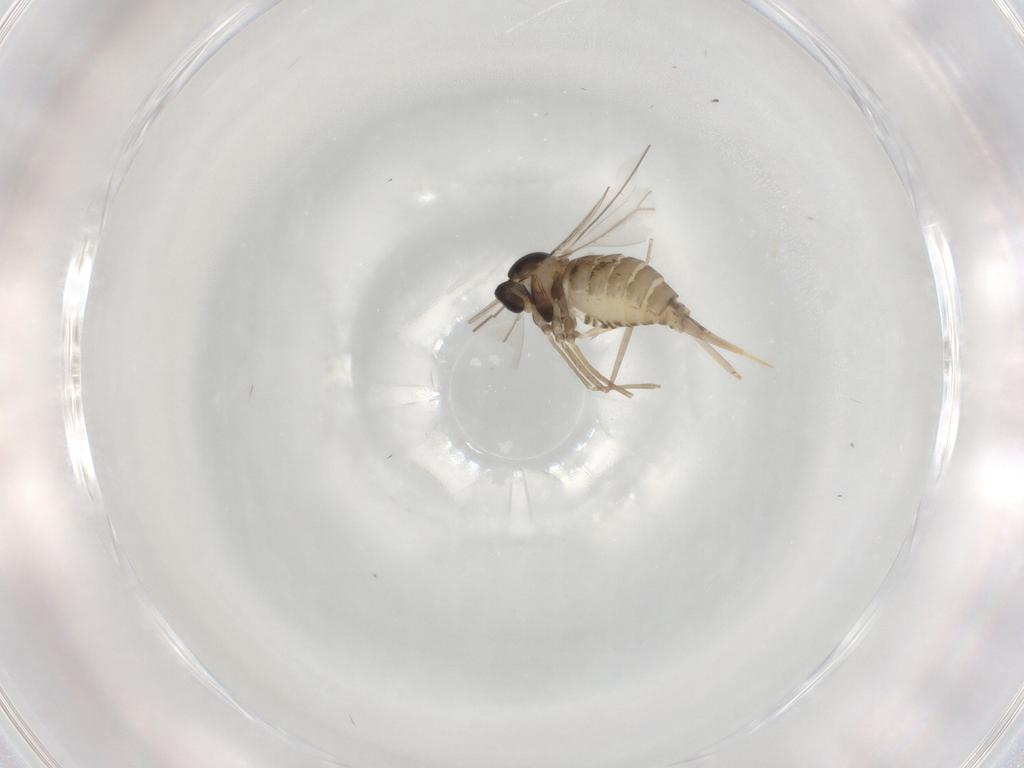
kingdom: Animalia
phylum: Arthropoda
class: Insecta
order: Diptera
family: Cecidomyiidae
